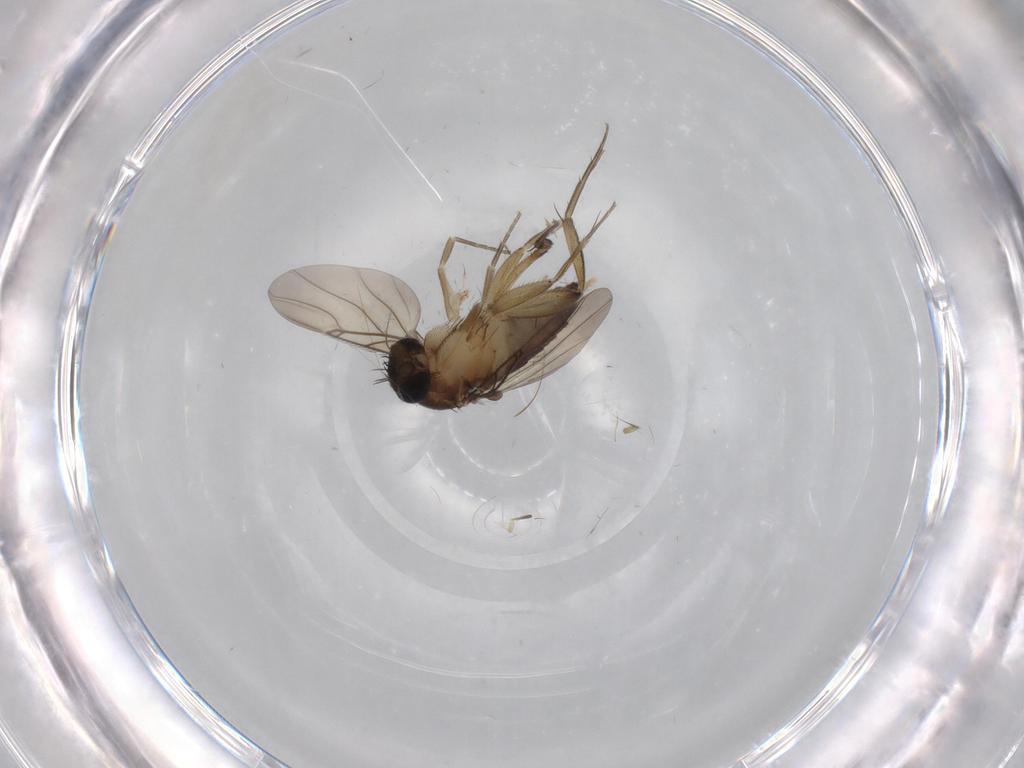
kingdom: Animalia
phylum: Arthropoda
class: Insecta
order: Diptera
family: Phoridae
